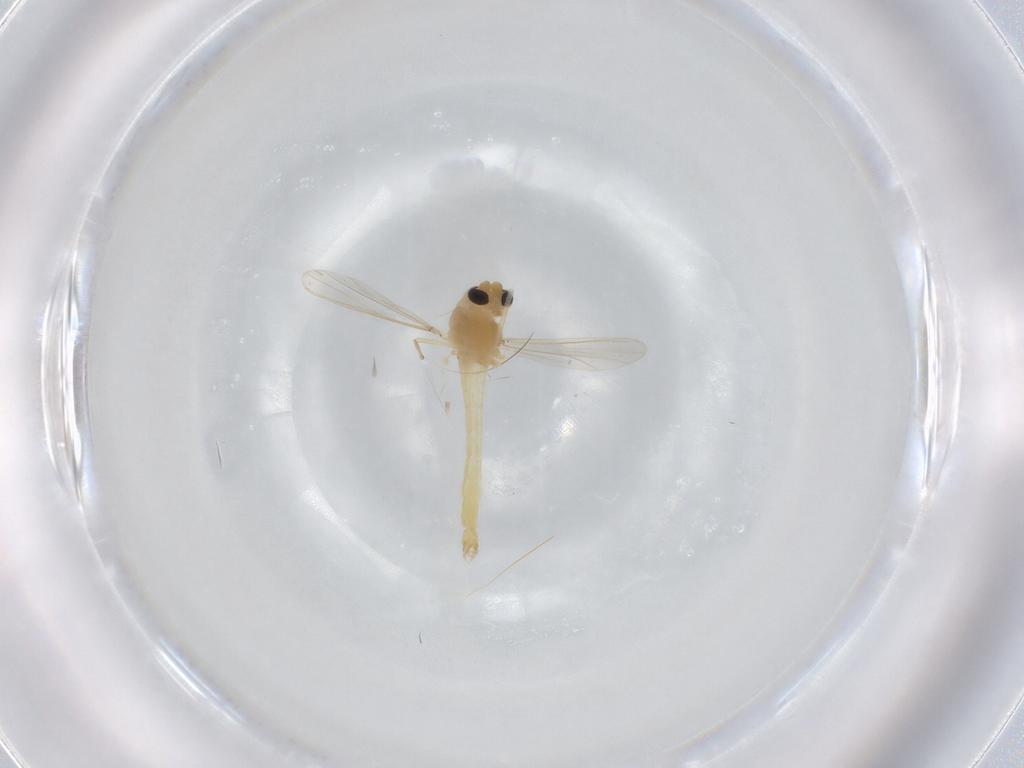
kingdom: Animalia
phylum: Arthropoda
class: Insecta
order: Diptera
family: Chironomidae
